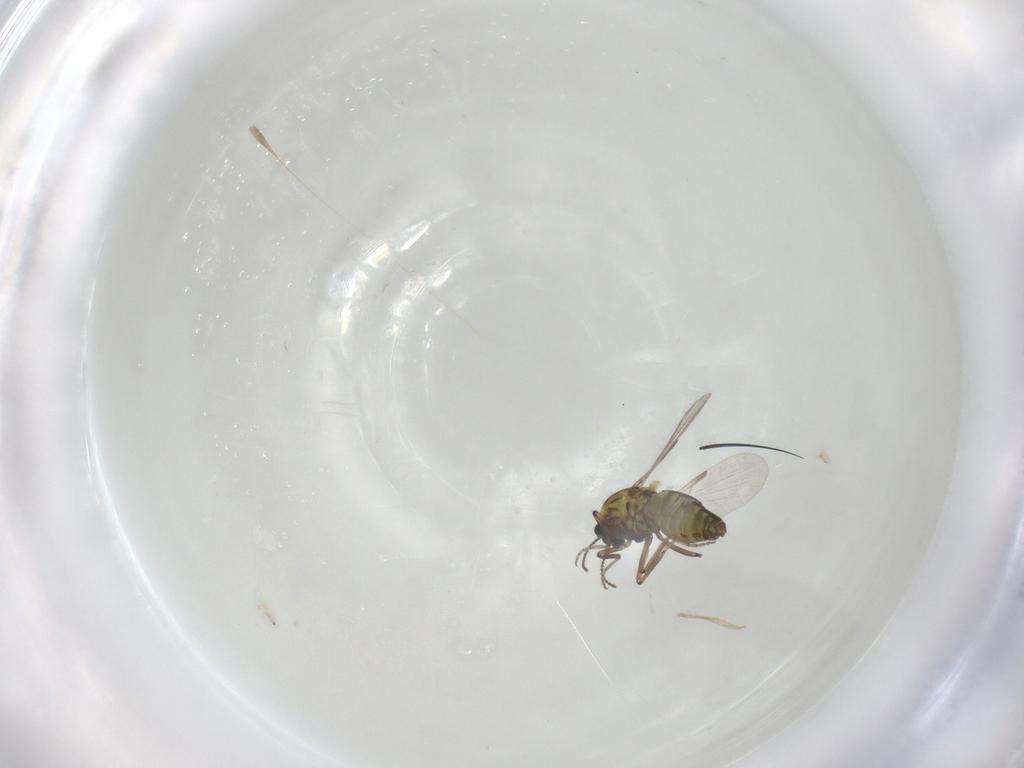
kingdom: Animalia
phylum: Arthropoda
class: Insecta
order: Diptera
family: Ceratopogonidae
